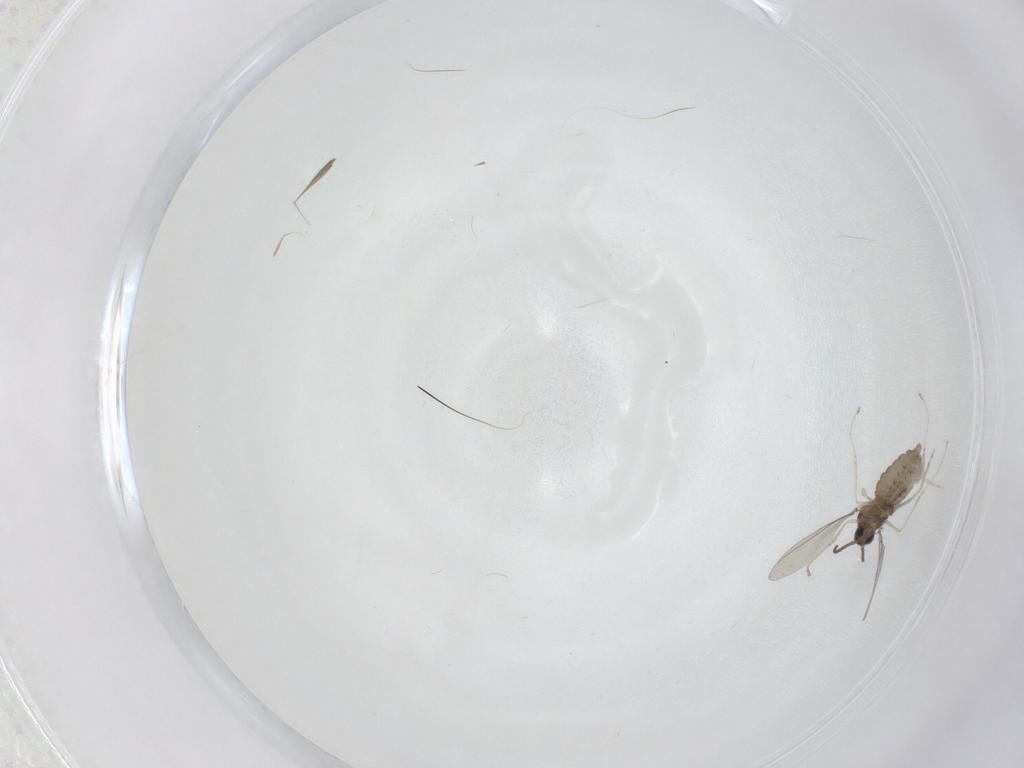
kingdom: Animalia
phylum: Arthropoda
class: Insecta
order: Diptera
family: Cecidomyiidae
